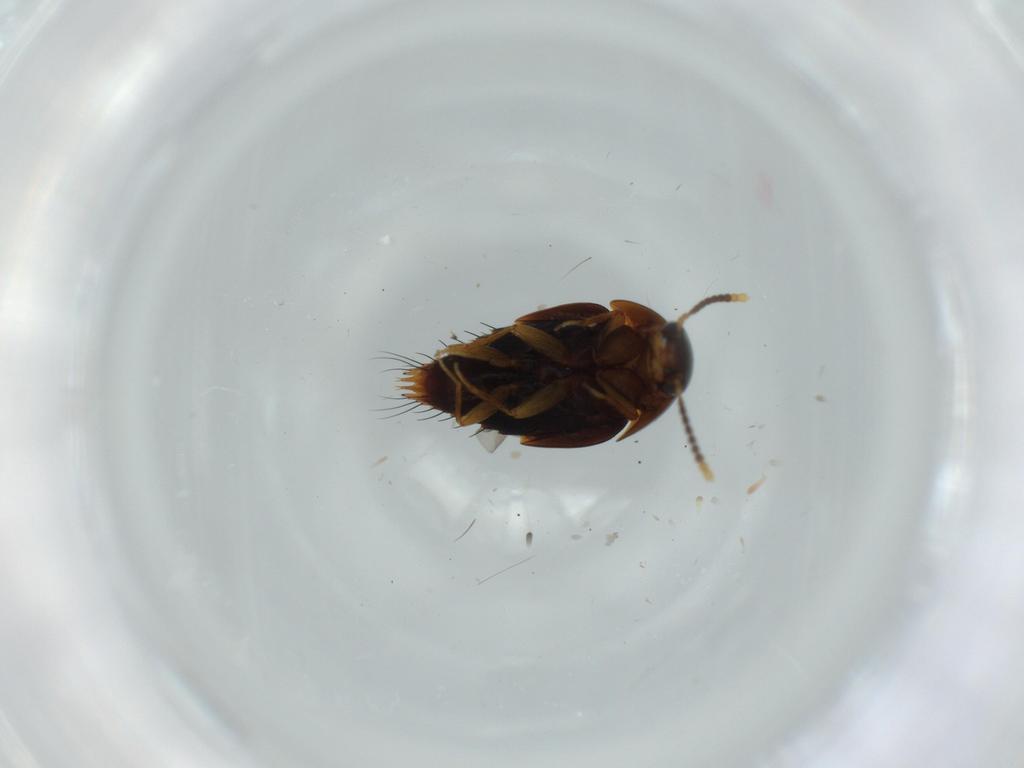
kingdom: Animalia
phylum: Arthropoda
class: Insecta
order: Coleoptera
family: Staphylinidae
